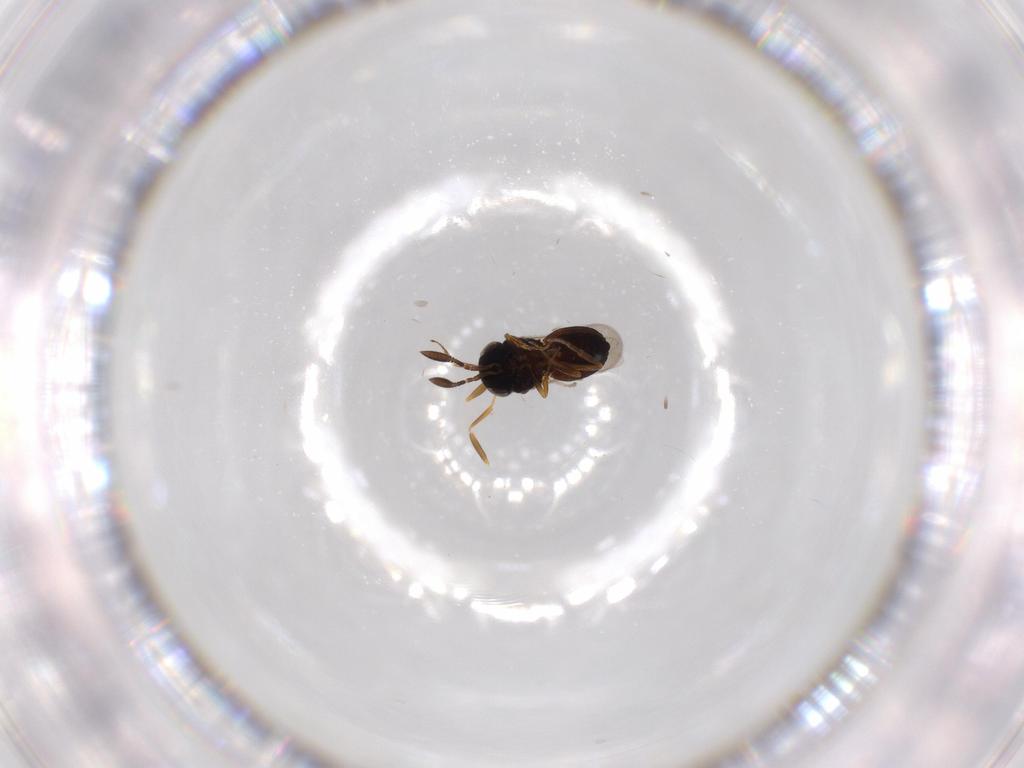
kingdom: Animalia
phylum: Arthropoda
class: Insecta
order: Coleoptera
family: Curculionidae
